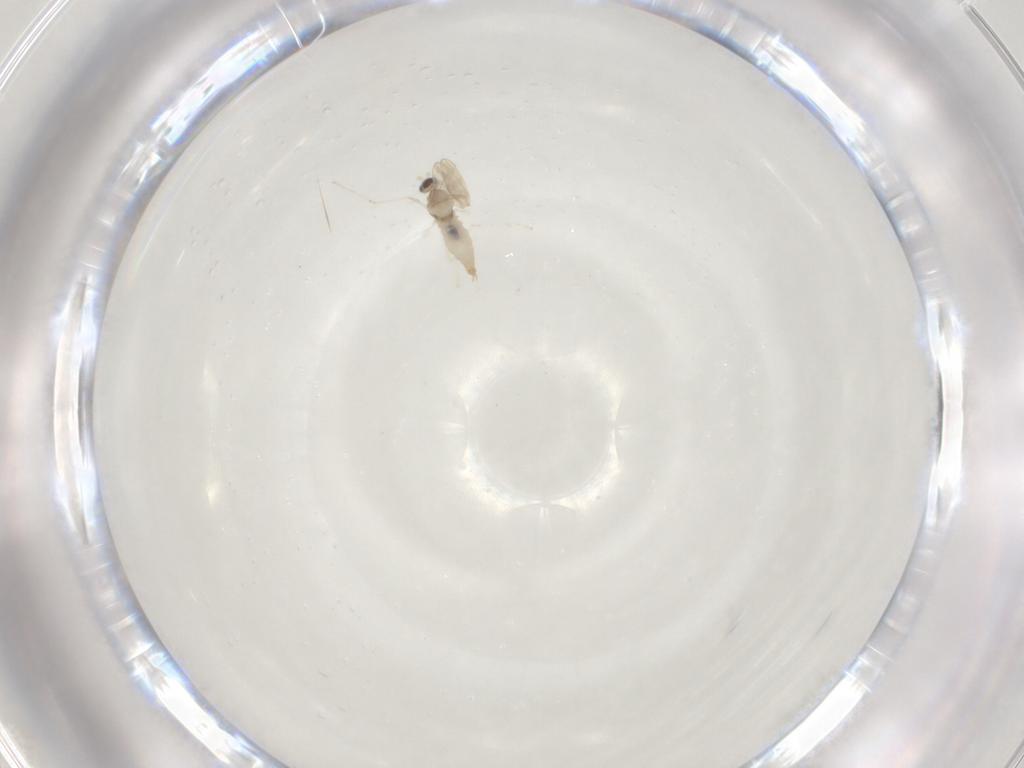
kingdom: Animalia
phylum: Arthropoda
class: Insecta
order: Diptera
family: Cecidomyiidae
